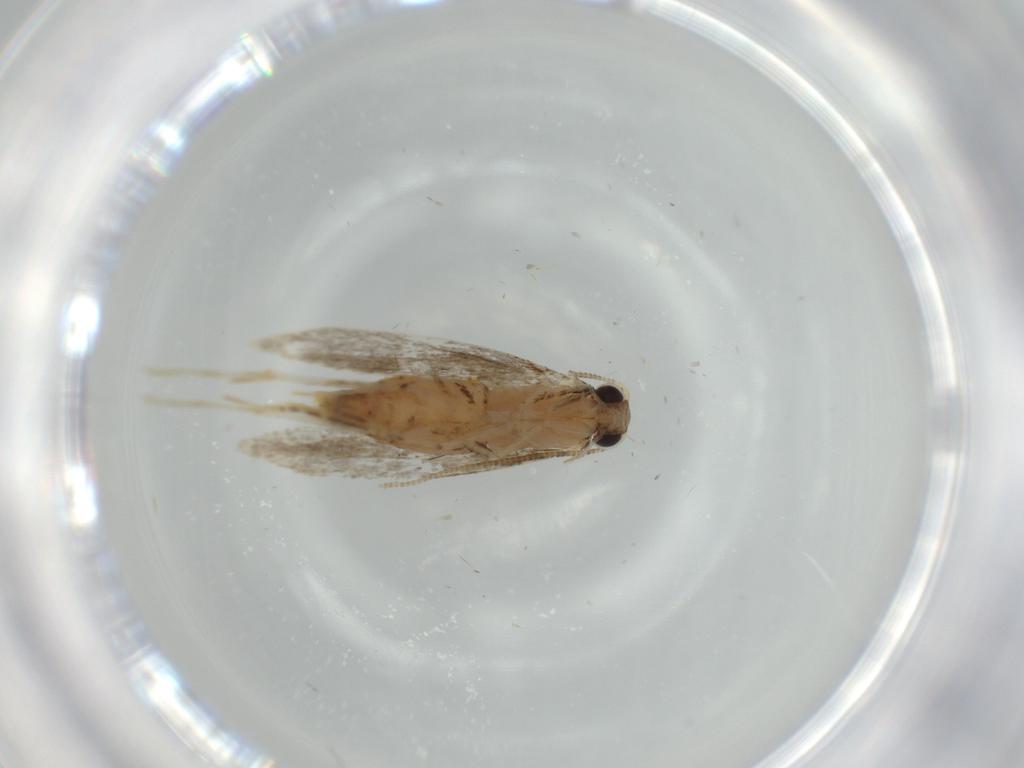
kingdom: Animalia
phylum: Arthropoda
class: Insecta
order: Lepidoptera
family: Tineidae
